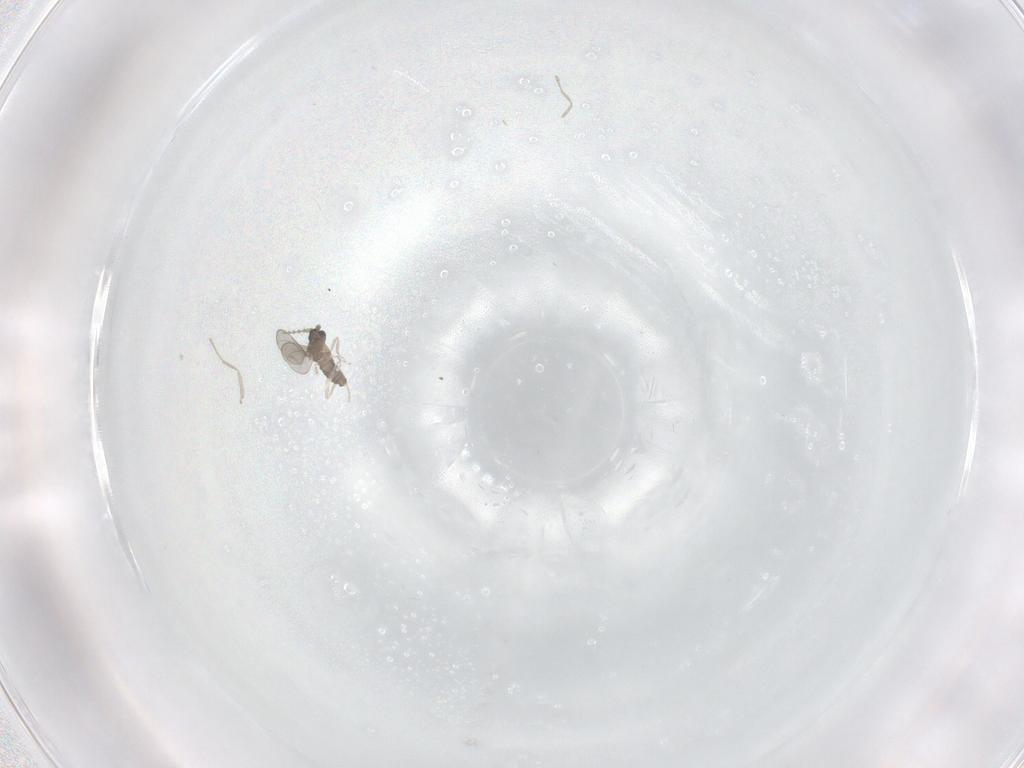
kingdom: Animalia
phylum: Arthropoda
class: Insecta
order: Diptera
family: Cecidomyiidae
